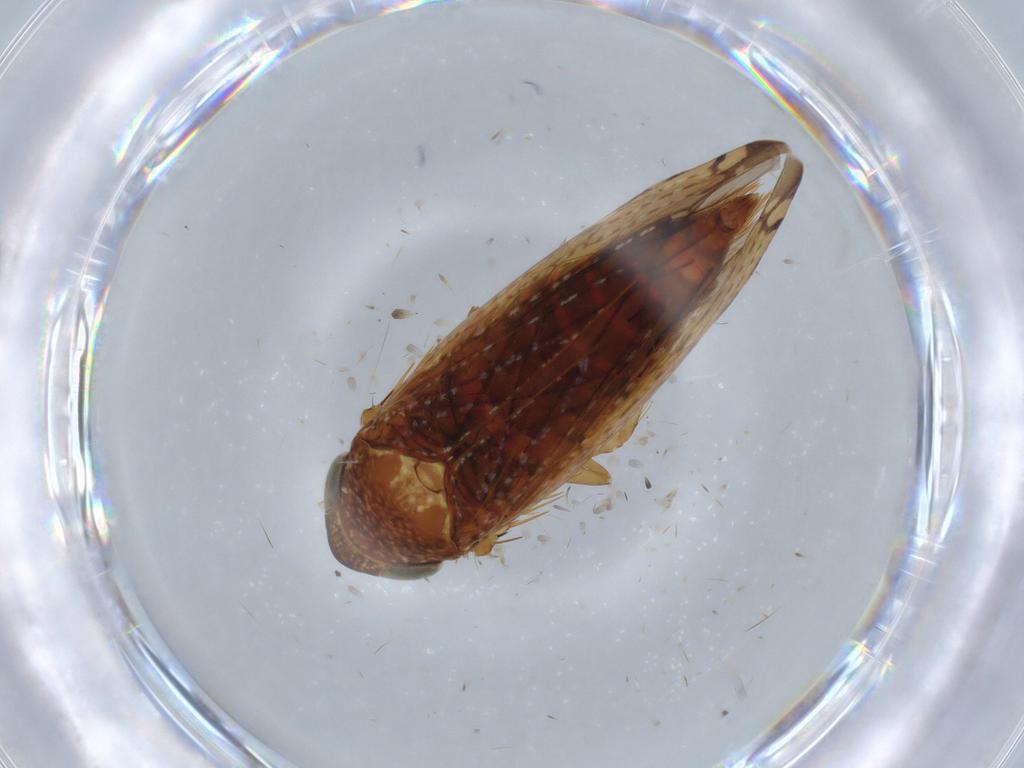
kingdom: Animalia
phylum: Arthropoda
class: Insecta
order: Hemiptera
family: Cicadellidae
